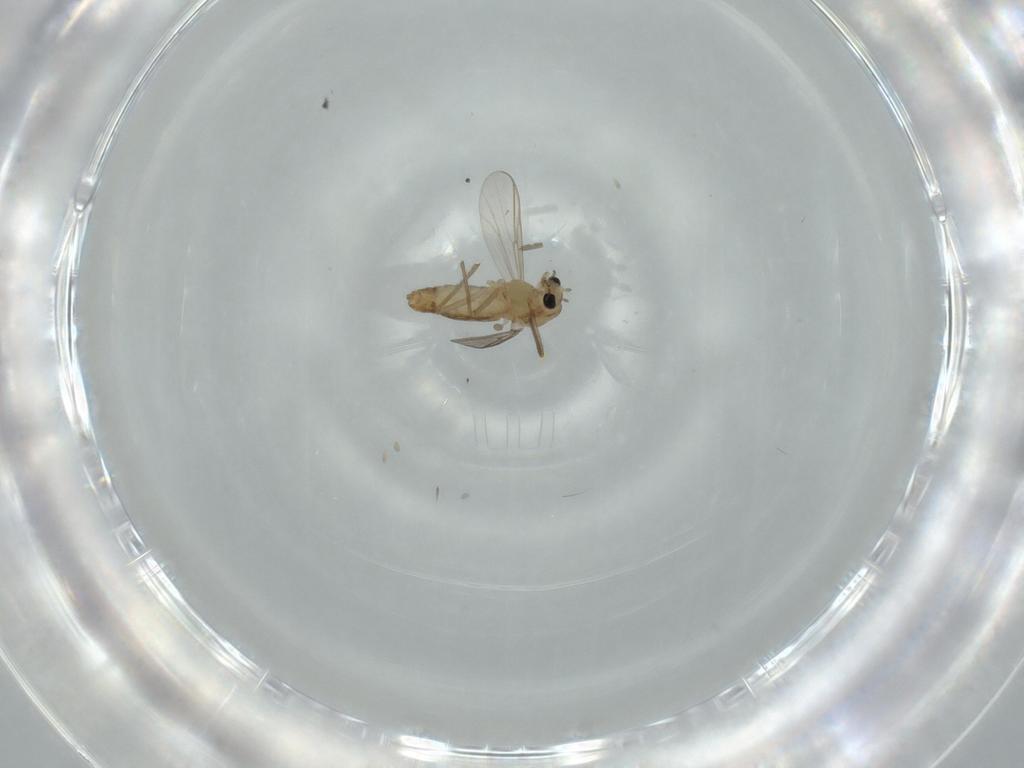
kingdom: Animalia
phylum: Arthropoda
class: Insecta
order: Diptera
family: Chironomidae
